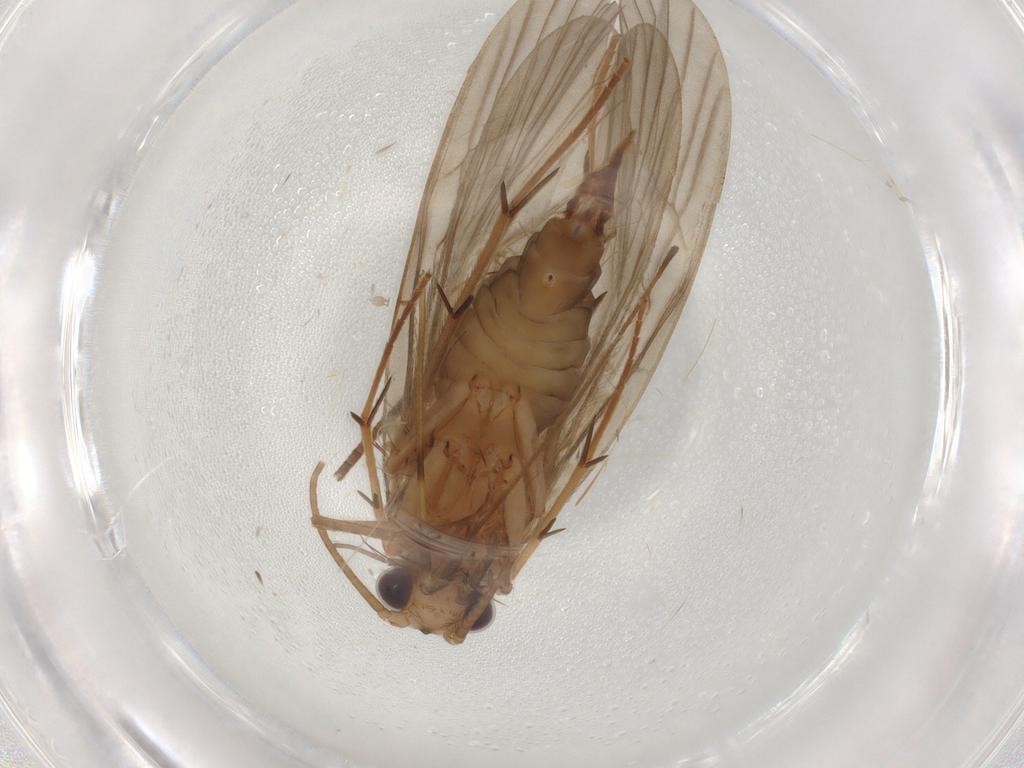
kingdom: Animalia
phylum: Arthropoda
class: Insecta
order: Trichoptera
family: Philopotamidae
